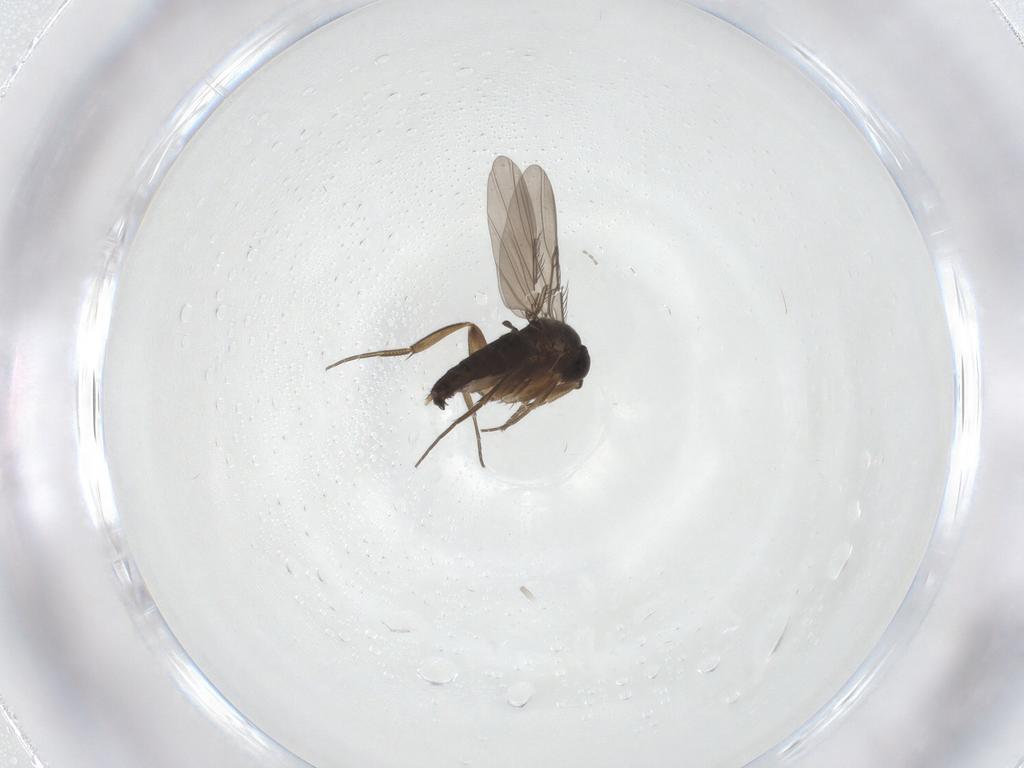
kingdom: Animalia
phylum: Arthropoda
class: Insecta
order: Diptera
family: Phoridae
